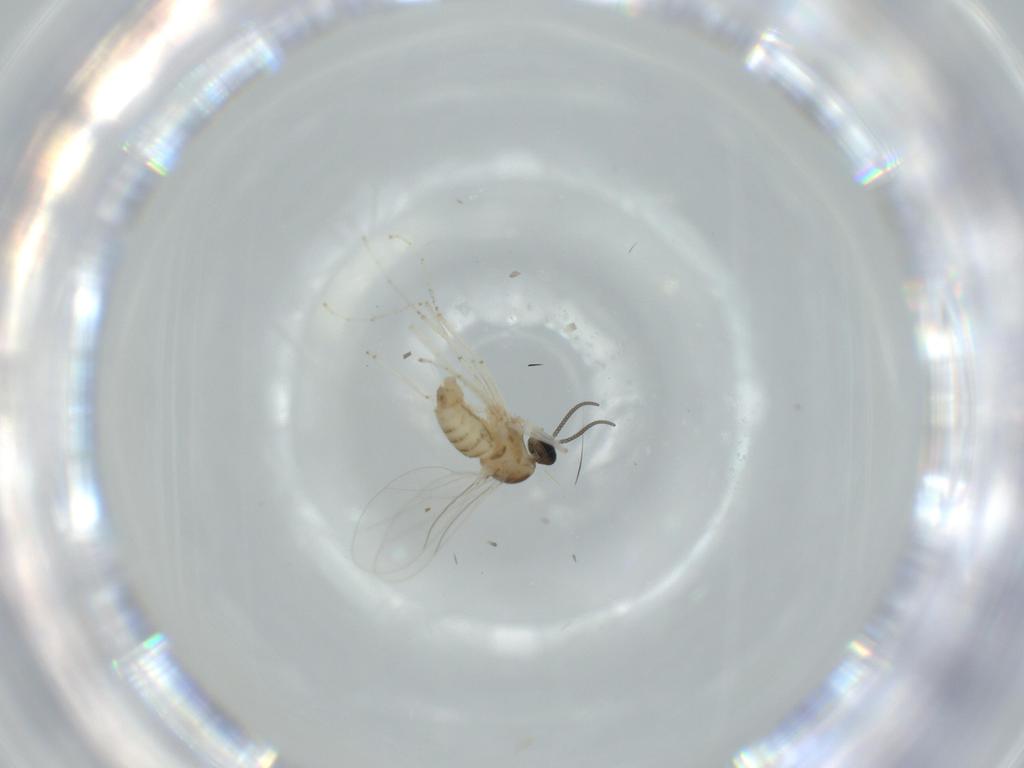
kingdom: Animalia
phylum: Arthropoda
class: Insecta
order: Diptera
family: Cecidomyiidae
